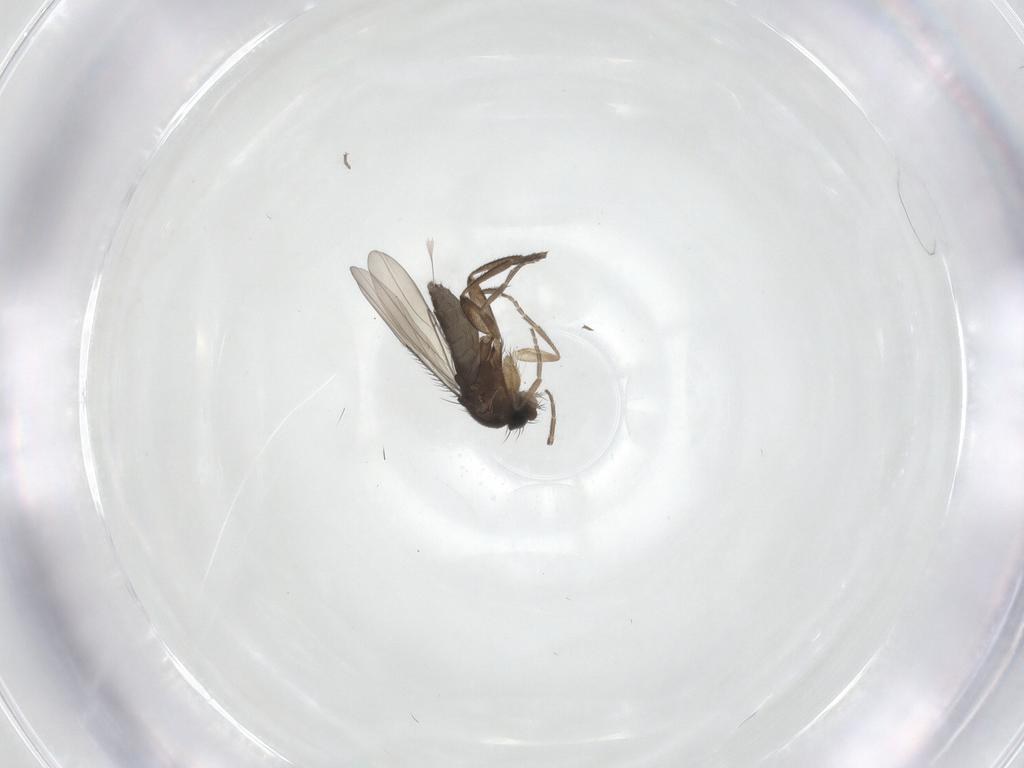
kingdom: Animalia
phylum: Arthropoda
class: Insecta
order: Diptera
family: Phoridae
